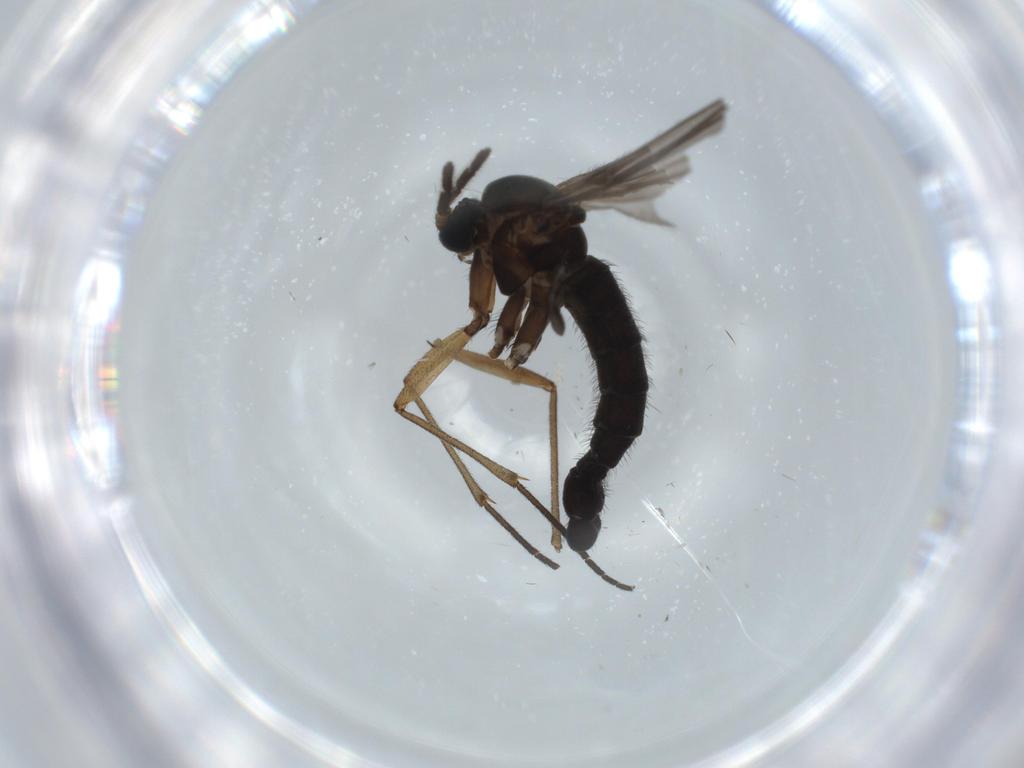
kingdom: Animalia
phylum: Arthropoda
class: Insecta
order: Diptera
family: Sciaridae
